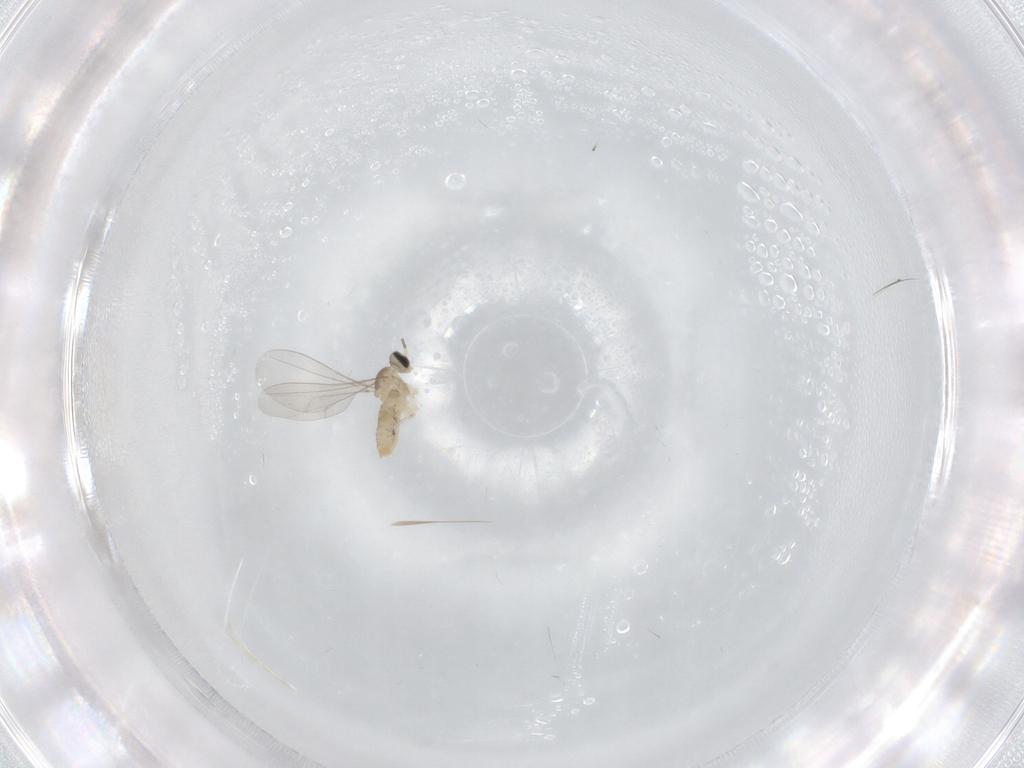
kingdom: Animalia
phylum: Arthropoda
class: Insecta
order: Diptera
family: Cecidomyiidae
